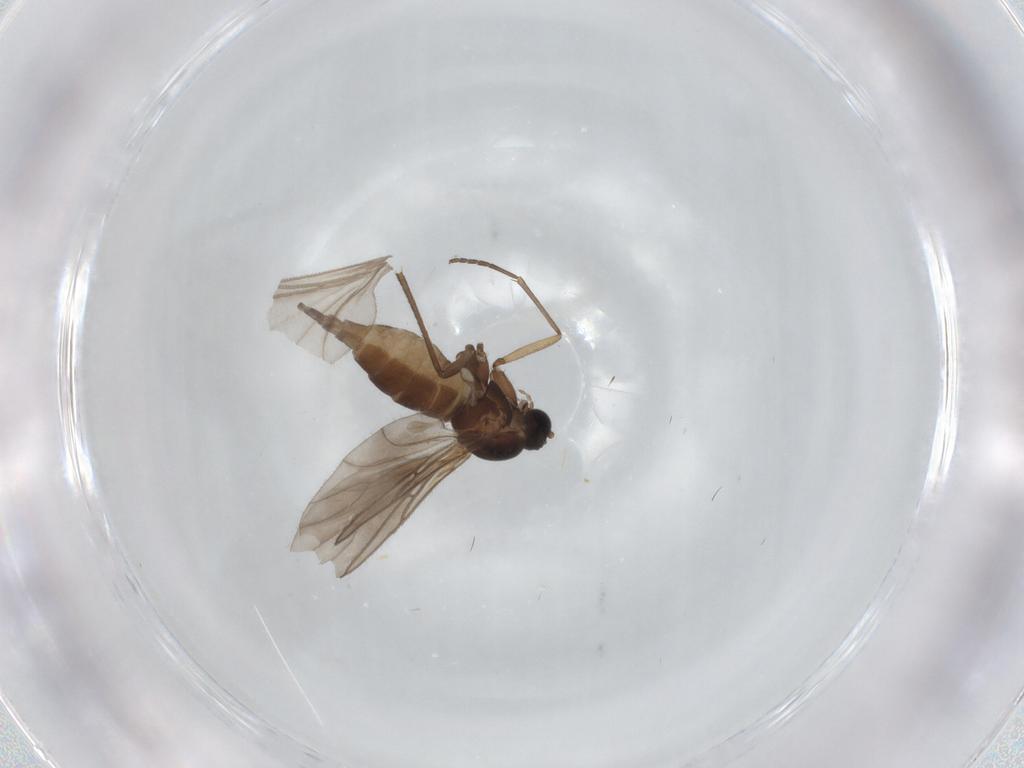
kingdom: Animalia
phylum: Arthropoda
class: Insecta
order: Diptera
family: Sciaridae
